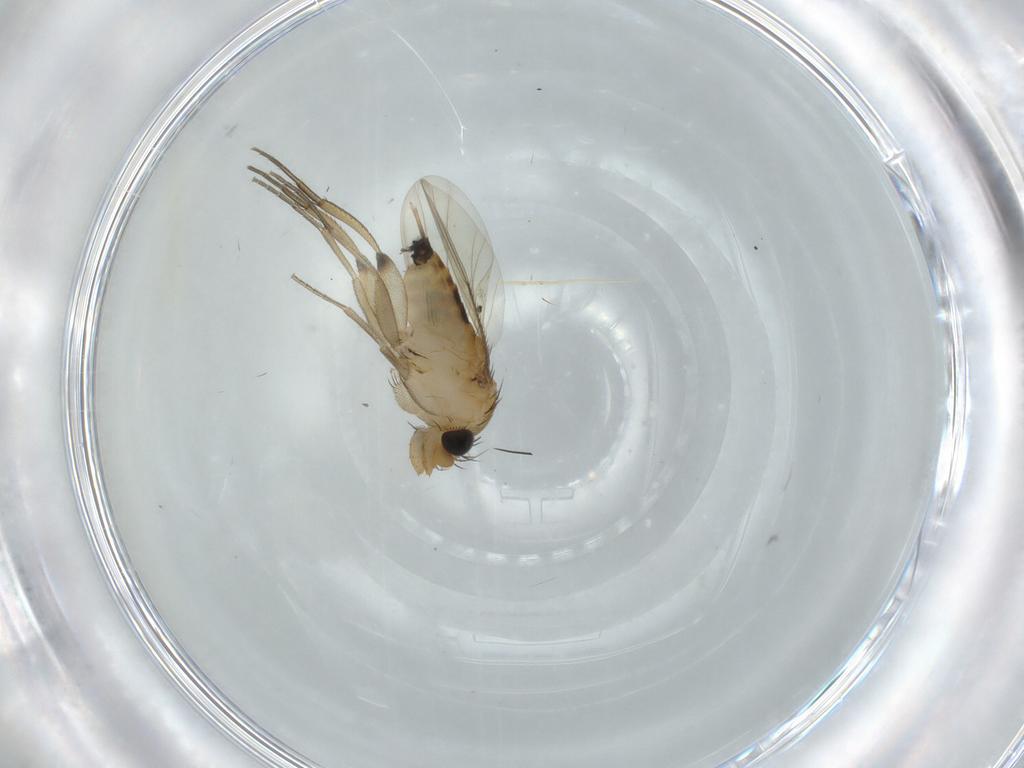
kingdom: Animalia
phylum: Arthropoda
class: Insecta
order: Diptera
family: Phoridae
